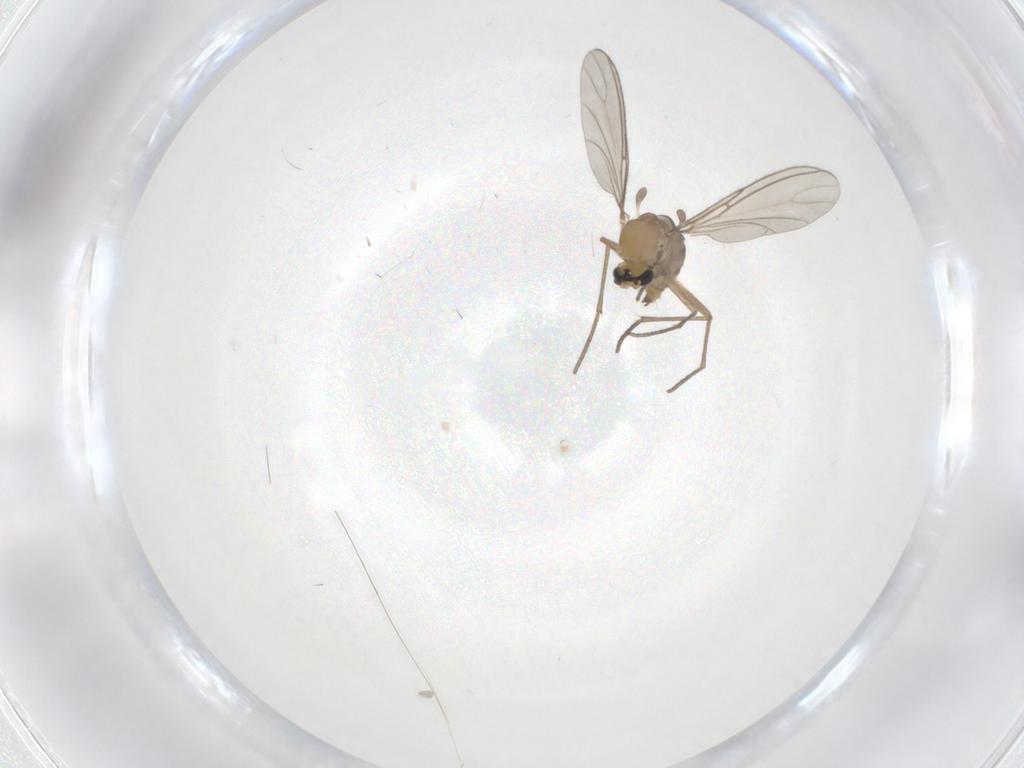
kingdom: Animalia
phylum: Arthropoda
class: Insecta
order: Diptera
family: Sciaridae
